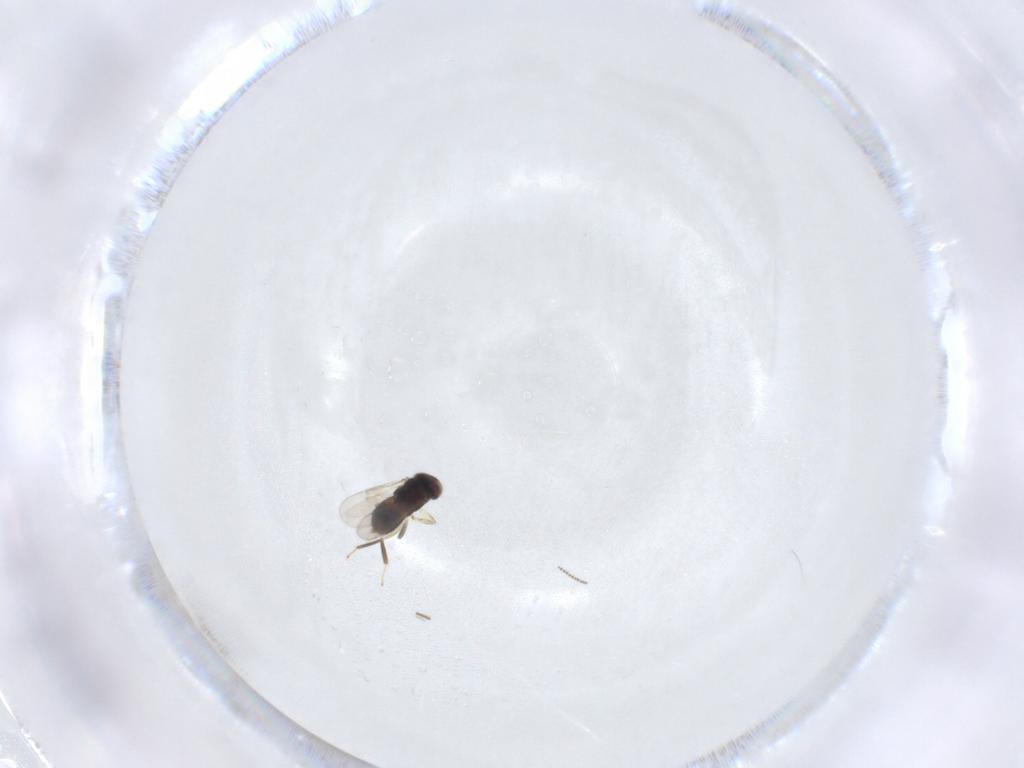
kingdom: Animalia
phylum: Arthropoda
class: Insecta
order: Hymenoptera
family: Aphelinidae
